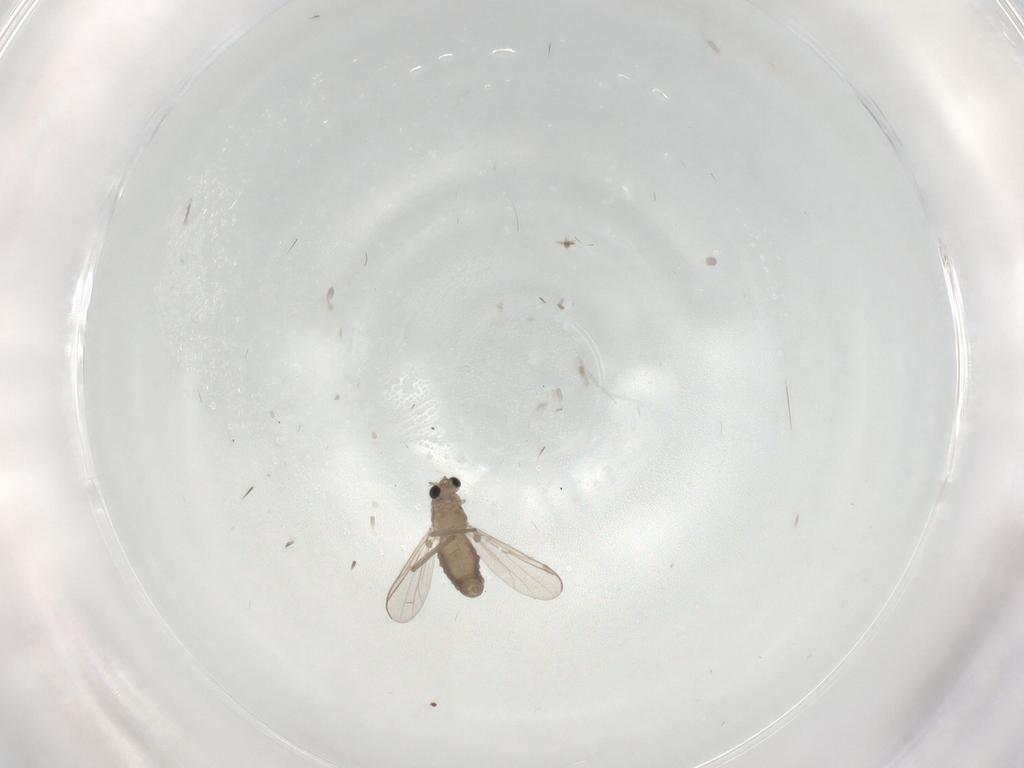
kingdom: Animalia
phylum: Arthropoda
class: Insecta
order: Diptera
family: Chironomidae
